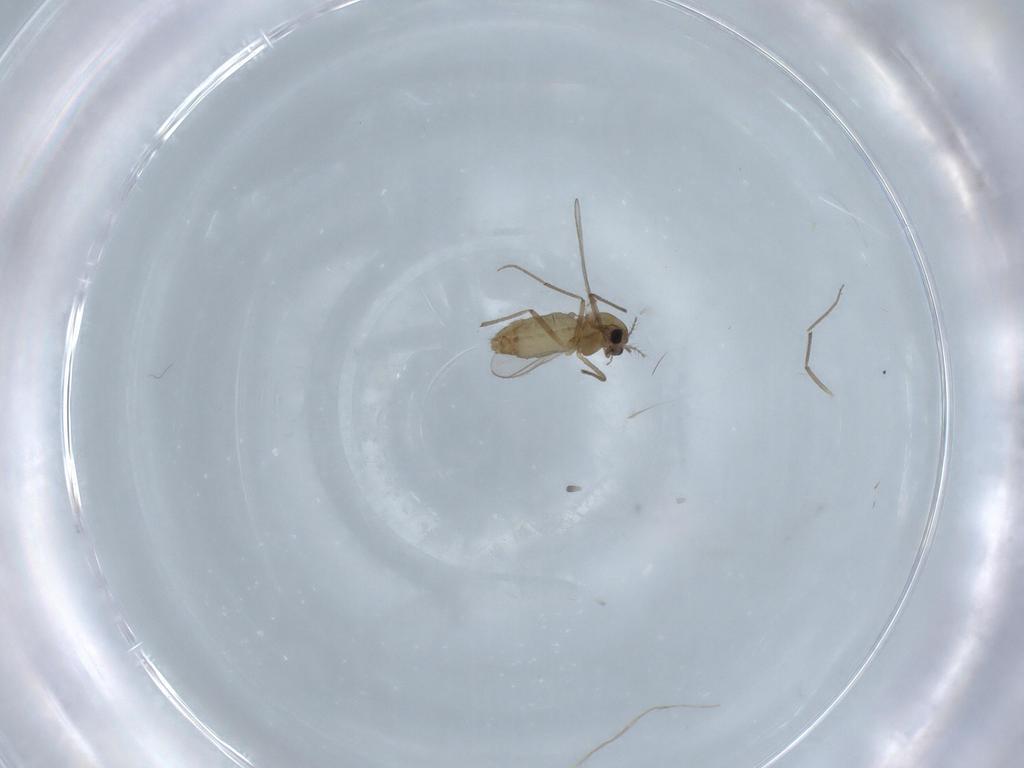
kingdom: Animalia
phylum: Arthropoda
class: Insecta
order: Diptera
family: Chironomidae
